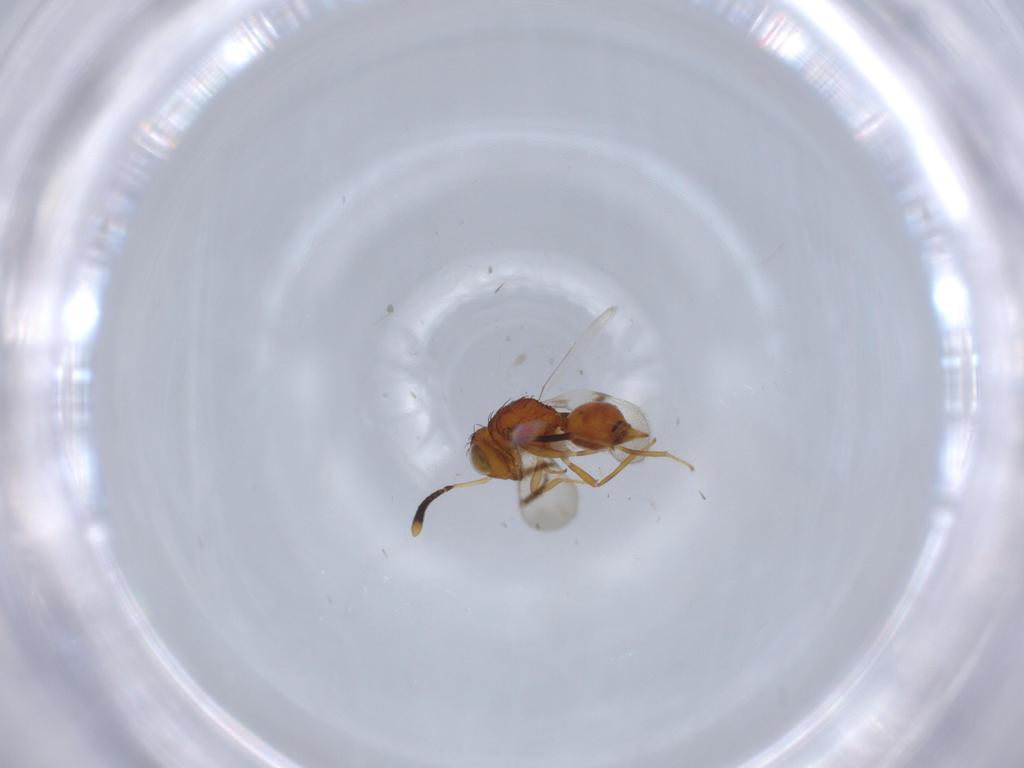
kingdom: Animalia
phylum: Arthropoda
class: Insecta
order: Hymenoptera
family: Diparidae
